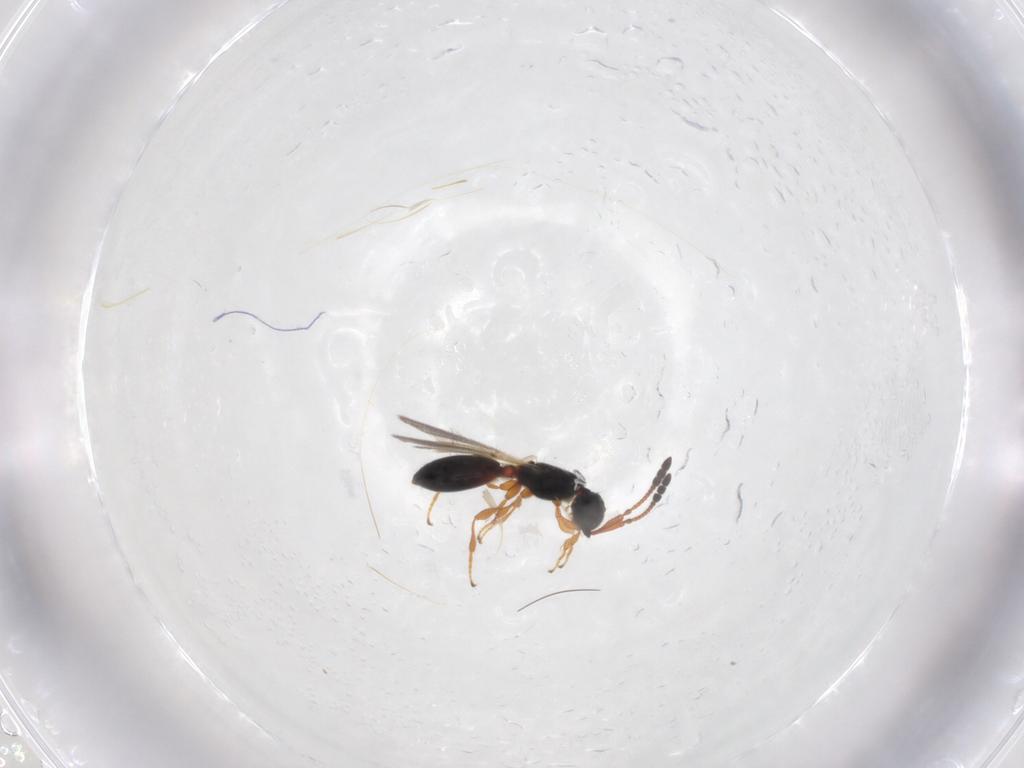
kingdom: Animalia
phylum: Arthropoda
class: Insecta
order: Hymenoptera
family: Diapriidae
